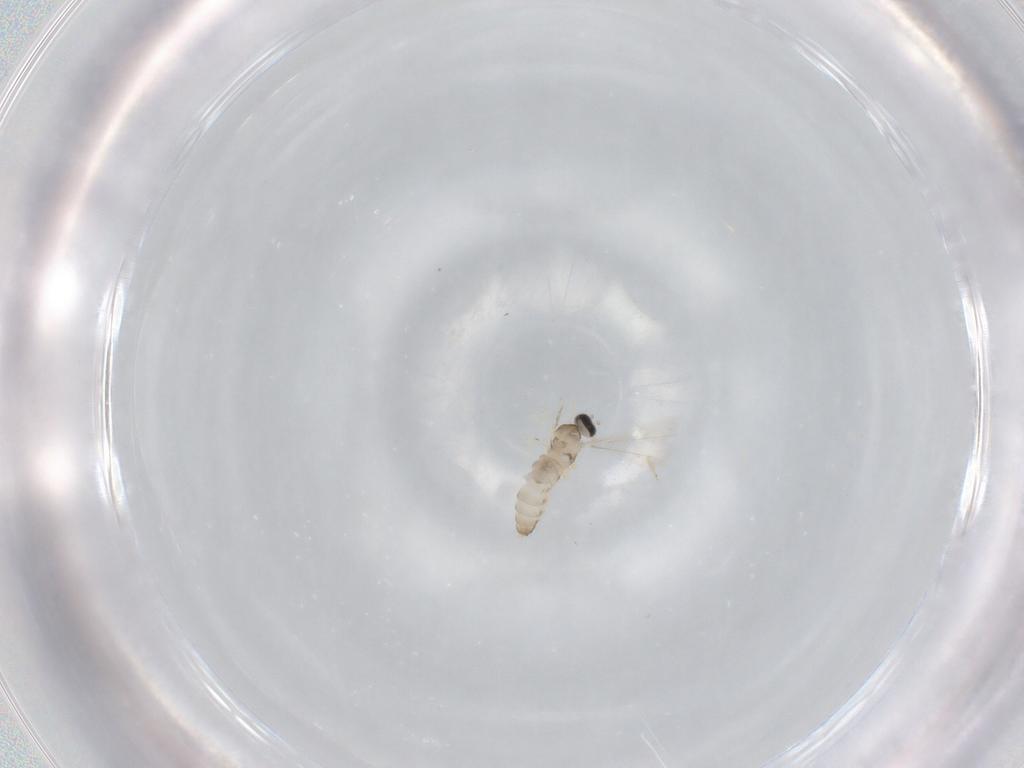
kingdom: Animalia
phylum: Arthropoda
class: Insecta
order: Diptera
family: Cecidomyiidae
